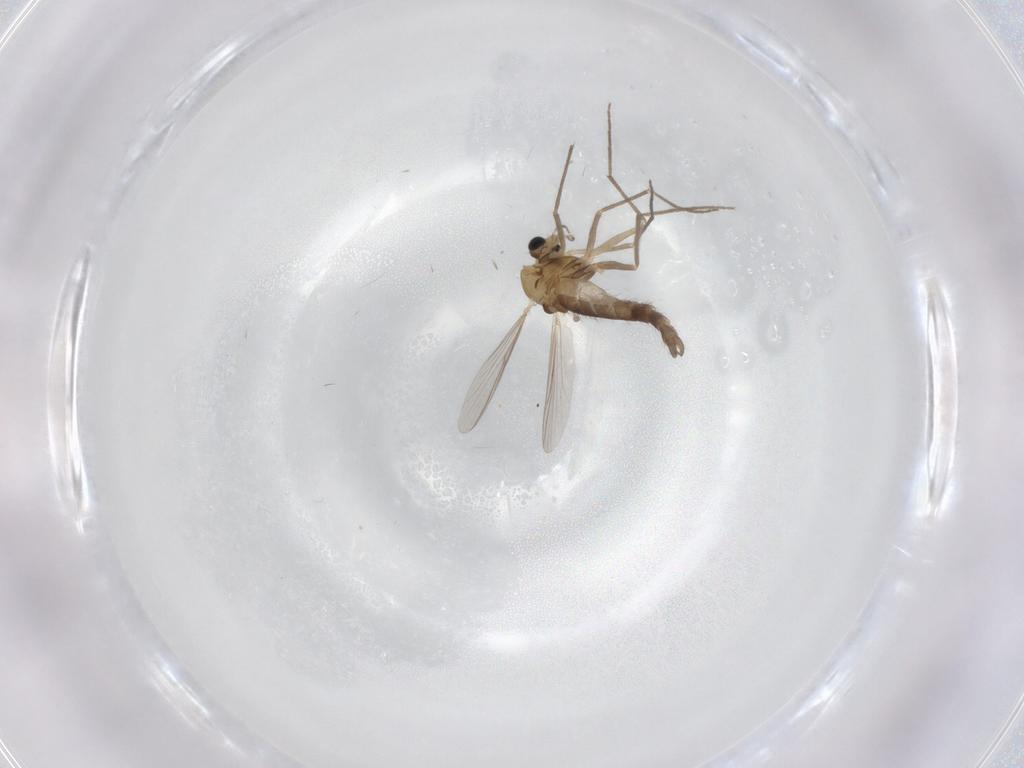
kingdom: Animalia
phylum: Arthropoda
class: Insecta
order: Diptera
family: Chironomidae
